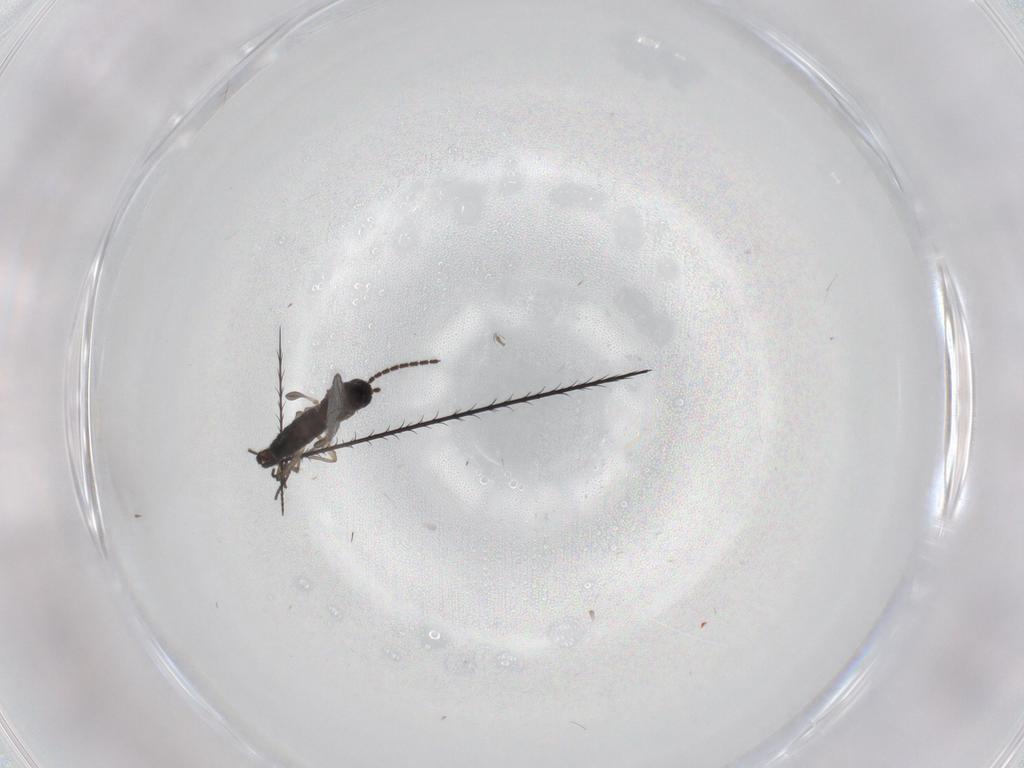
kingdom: Animalia
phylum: Arthropoda
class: Insecta
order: Diptera
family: Sciaridae
